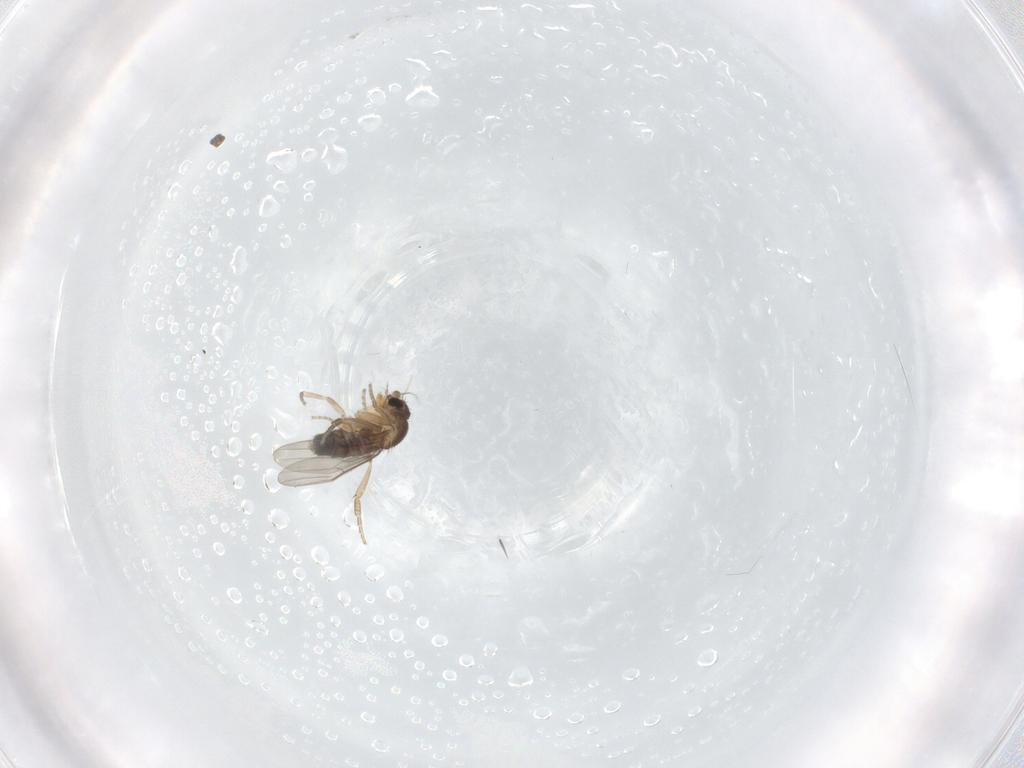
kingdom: Animalia
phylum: Arthropoda
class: Insecta
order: Diptera
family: Phoridae
